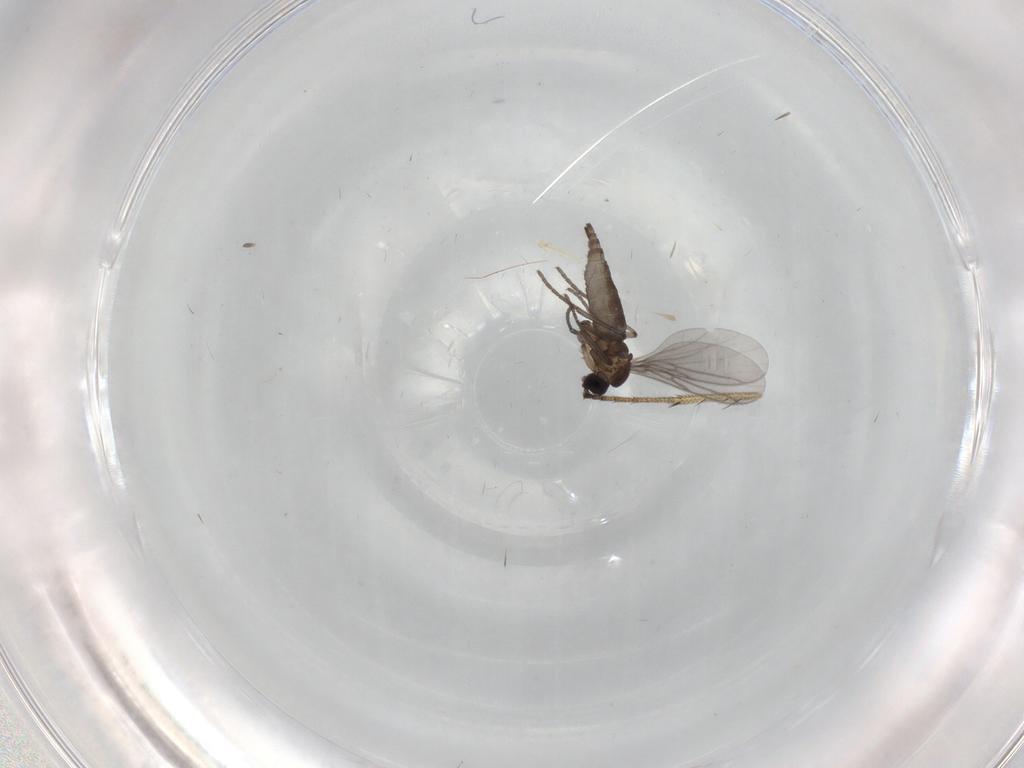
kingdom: Animalia
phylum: Arthropoda
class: Insecta
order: Diptera
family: Sciaridae
